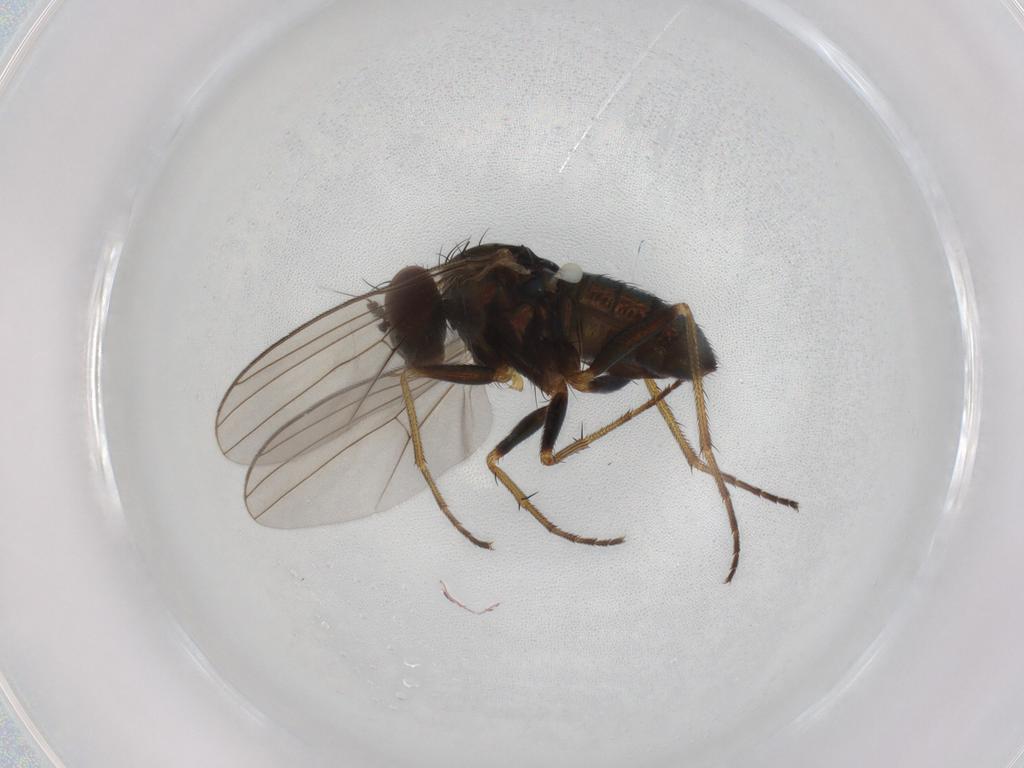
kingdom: Animalia
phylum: Arthropoda
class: Insecta
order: Diptera
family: Dolichopodidae
